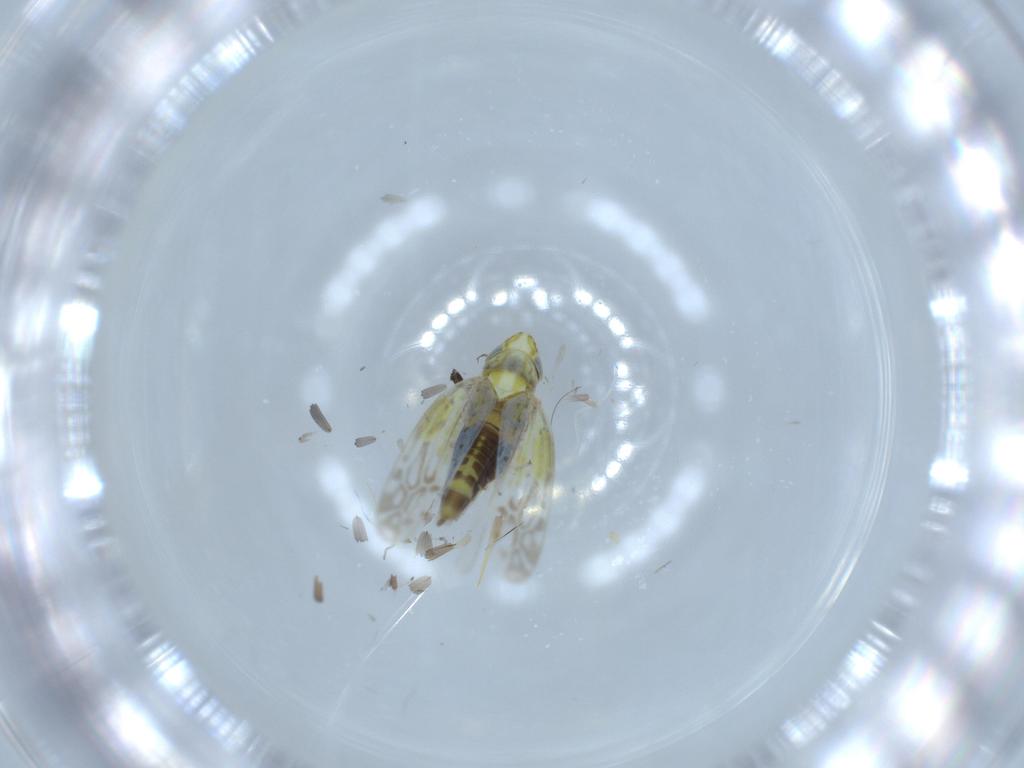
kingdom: Animalia
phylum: Arthropoda
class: Insecta
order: Hemiptera
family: Cicadellidae
